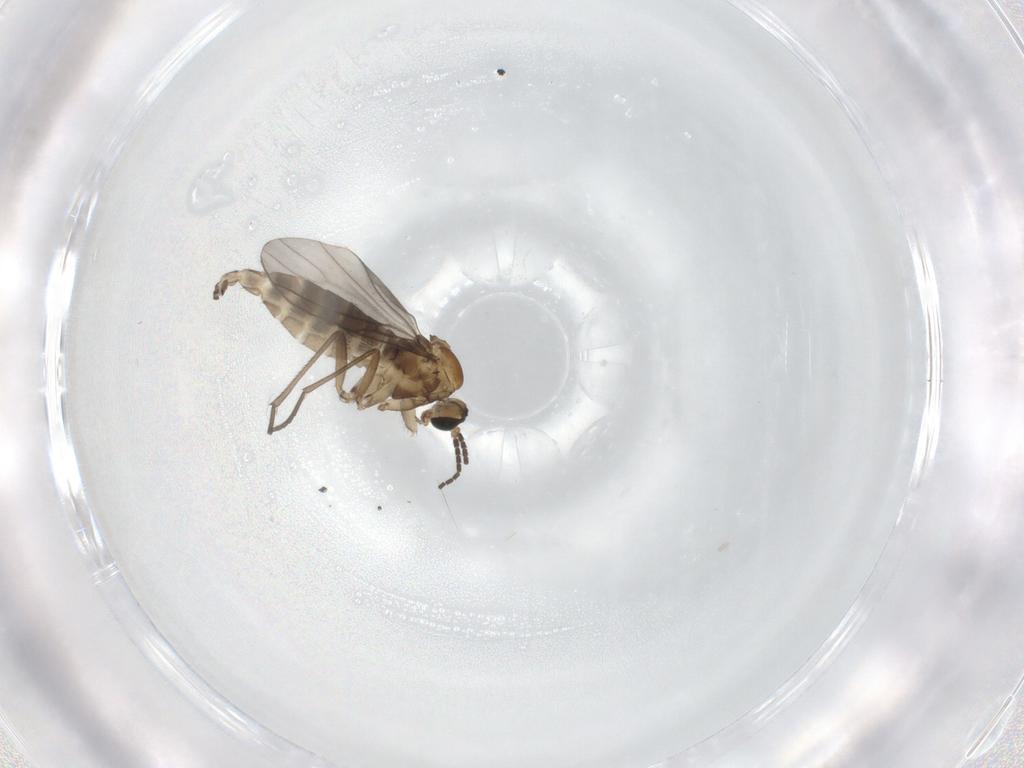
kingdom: Animalia
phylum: Arthropoda
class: Insecta
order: Diptera
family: Sciaridae
